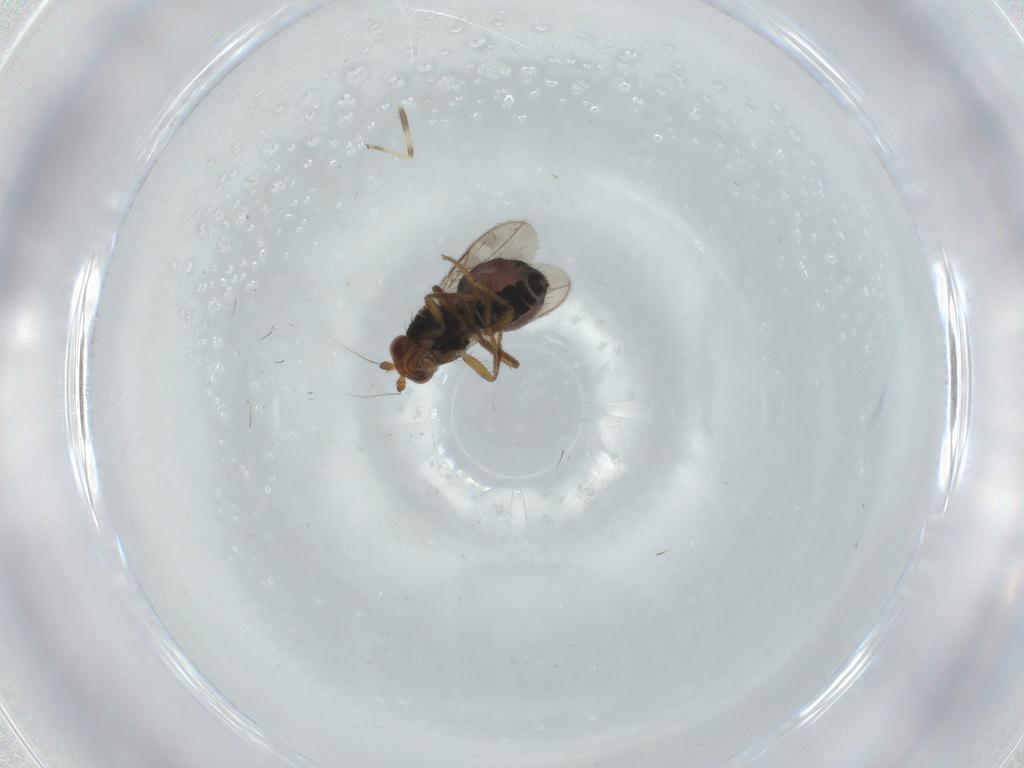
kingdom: Animalia
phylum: Arthropoda
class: Insecta
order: Diptera
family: Sphaeroceridae
